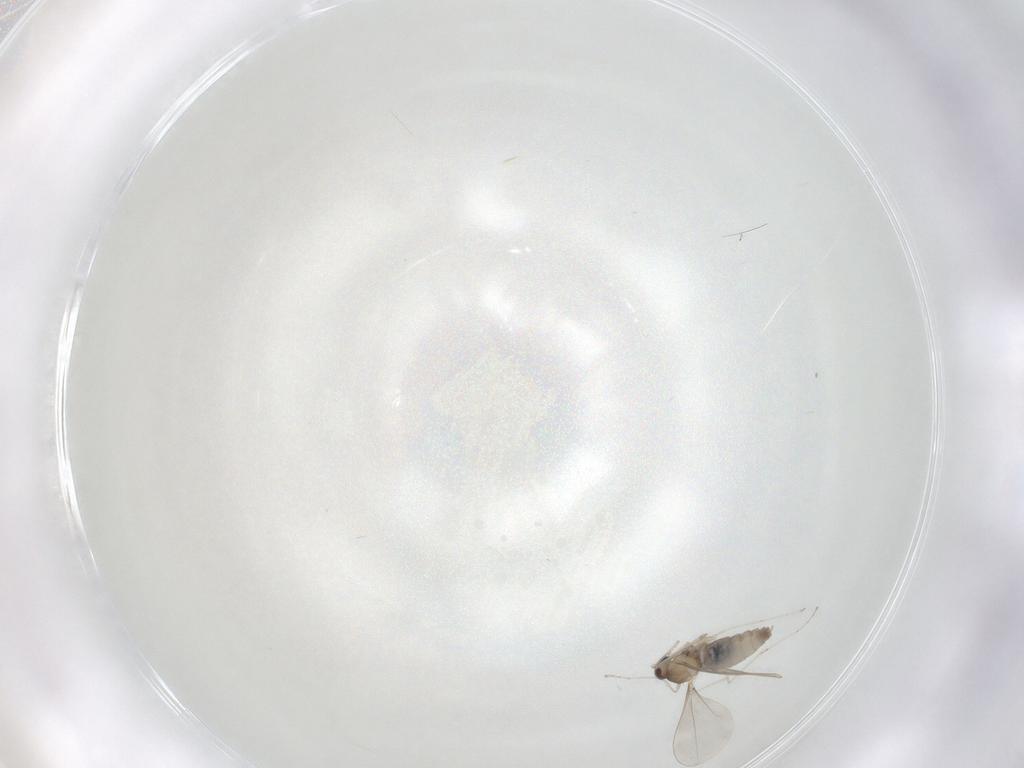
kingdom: Animalia
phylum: Arthropoda
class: Insecta
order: Diptera
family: Cecidomyiidae
